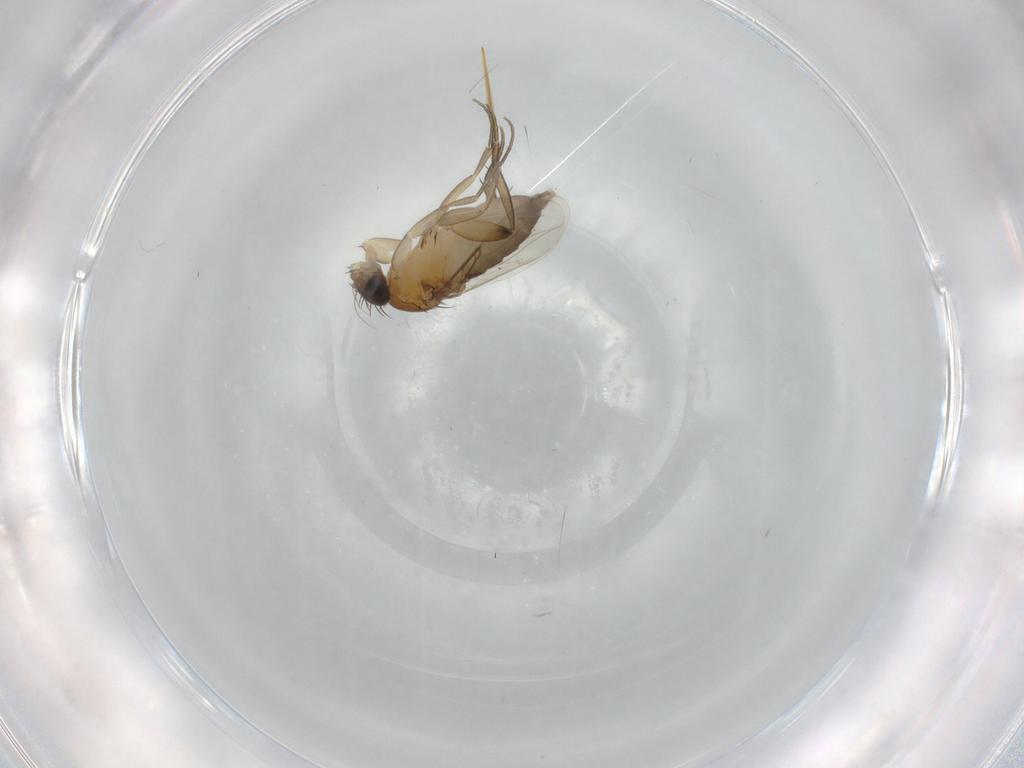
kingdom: Animalia
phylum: Arthropoda
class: Insecta
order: Diptera
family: Phoridae
